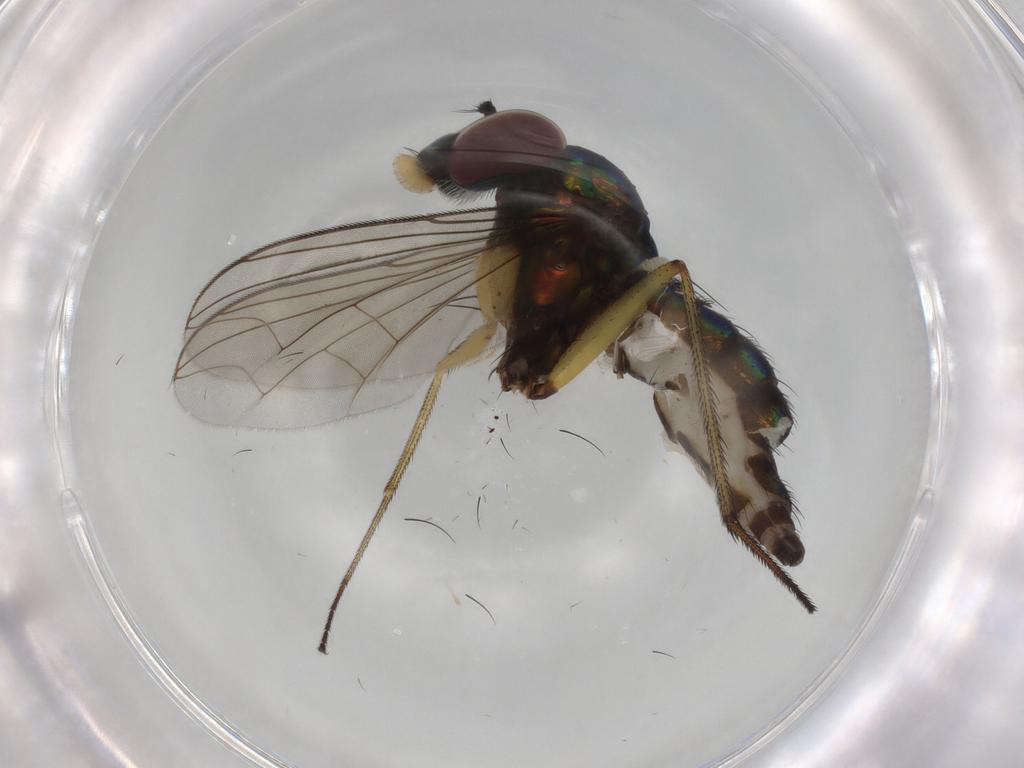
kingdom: Animalia
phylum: Arthropoda
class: Insecta
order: Diptera
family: Dolichopodidae
